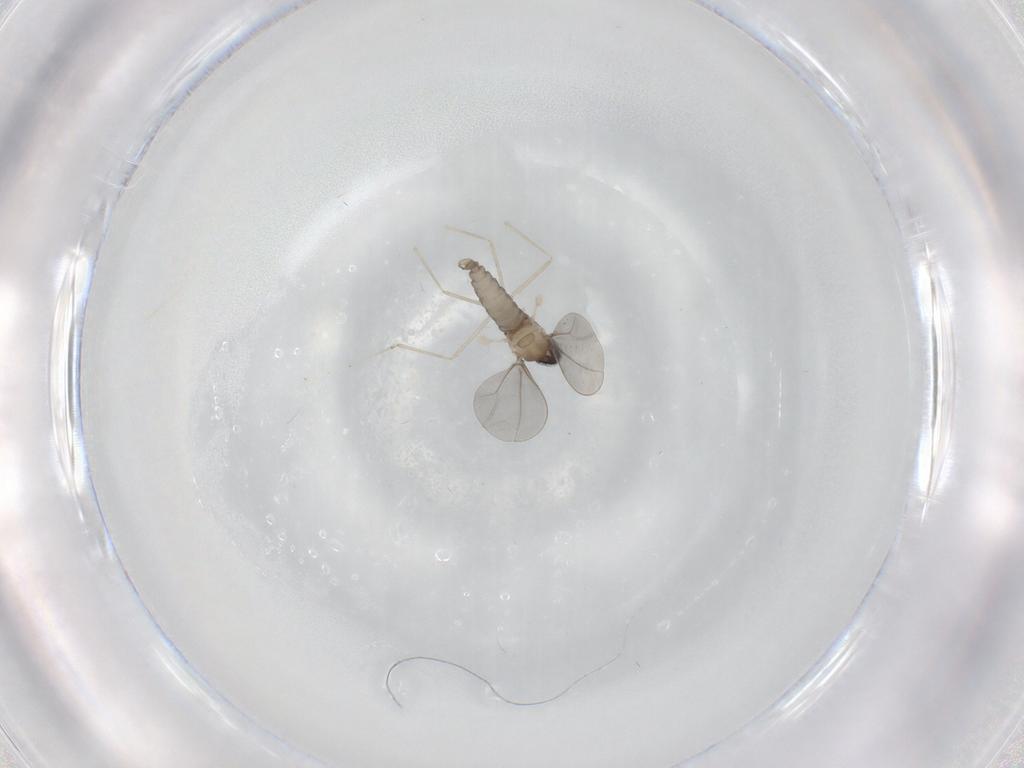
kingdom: Animalia
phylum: Arthropoda
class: Insecta
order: Diptera
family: Cecidomyiidae
